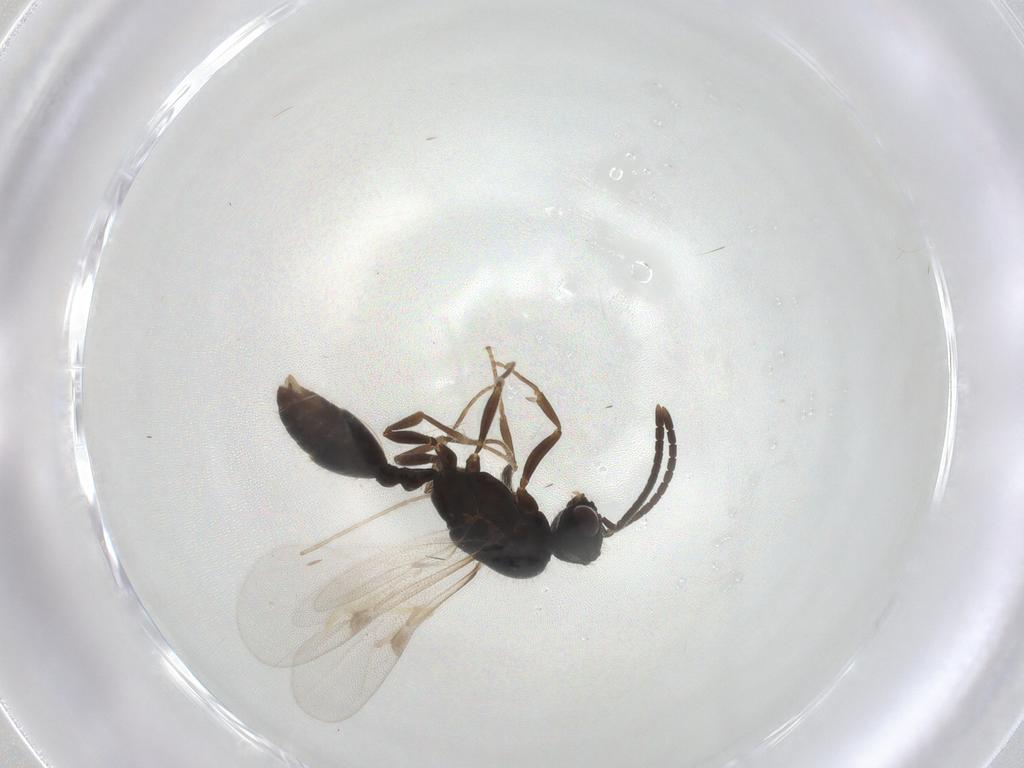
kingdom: Animalia
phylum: Arthropoda
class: Insecta
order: Hymenoptera
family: Formicidae
